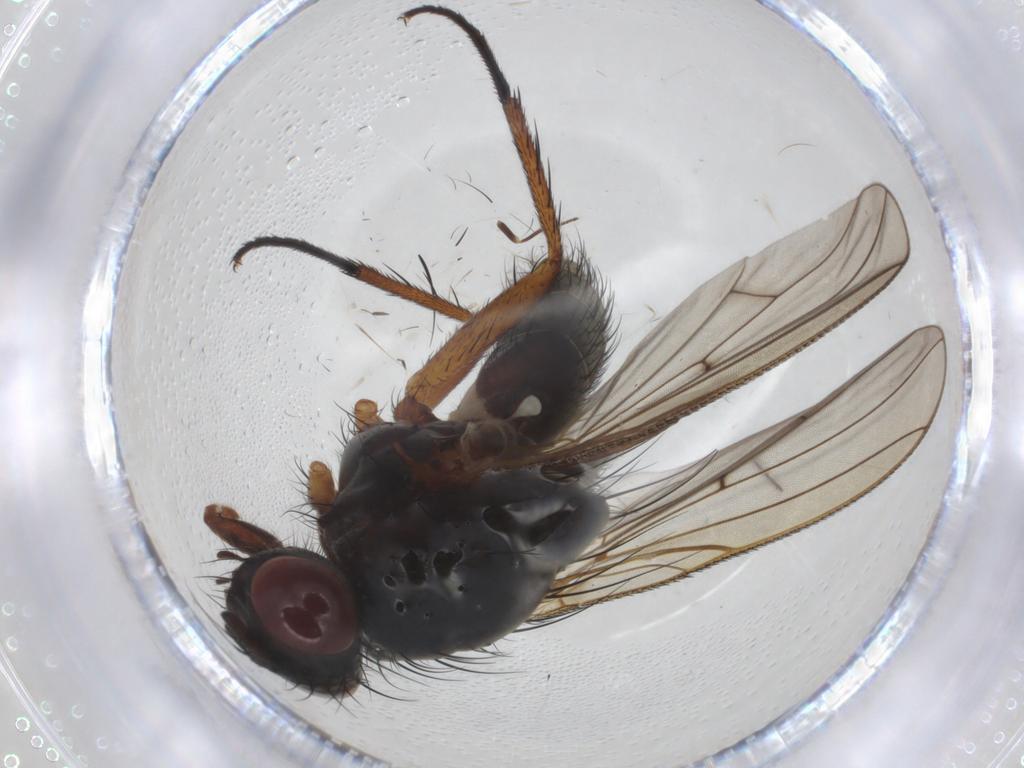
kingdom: Animalia
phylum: Arthropoda
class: Insecta
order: Diptera
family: Anthomyiidae
